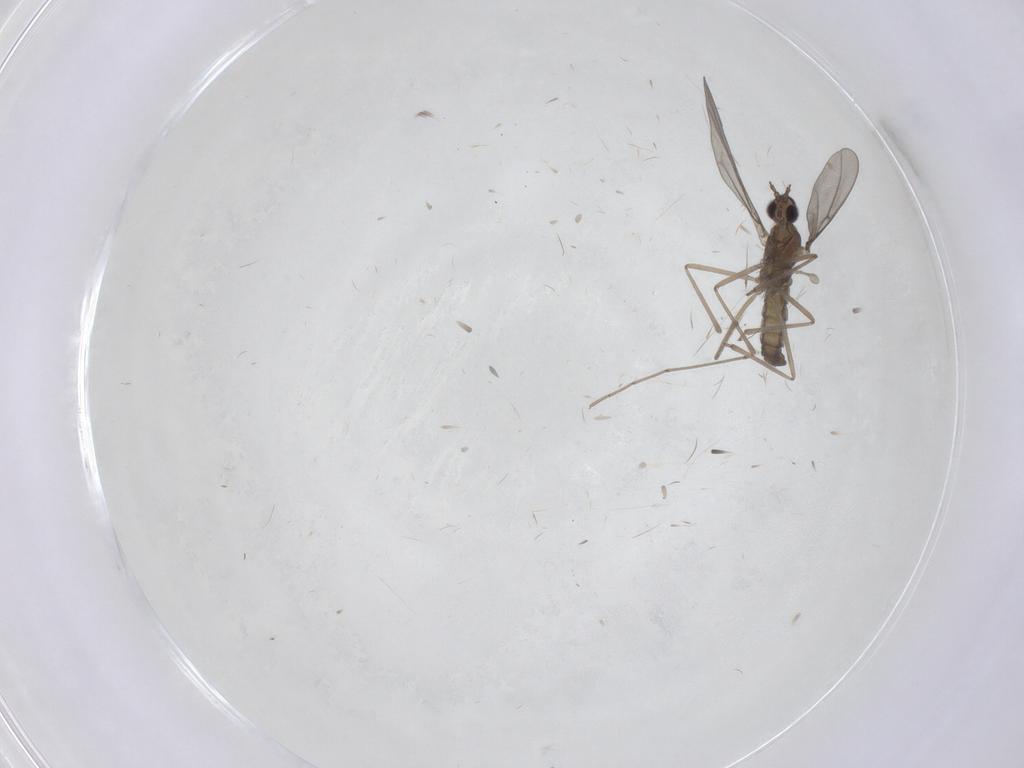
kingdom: Animalia
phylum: Arthropoda
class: Insecta
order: Diptera
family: Cecidomyiidae
